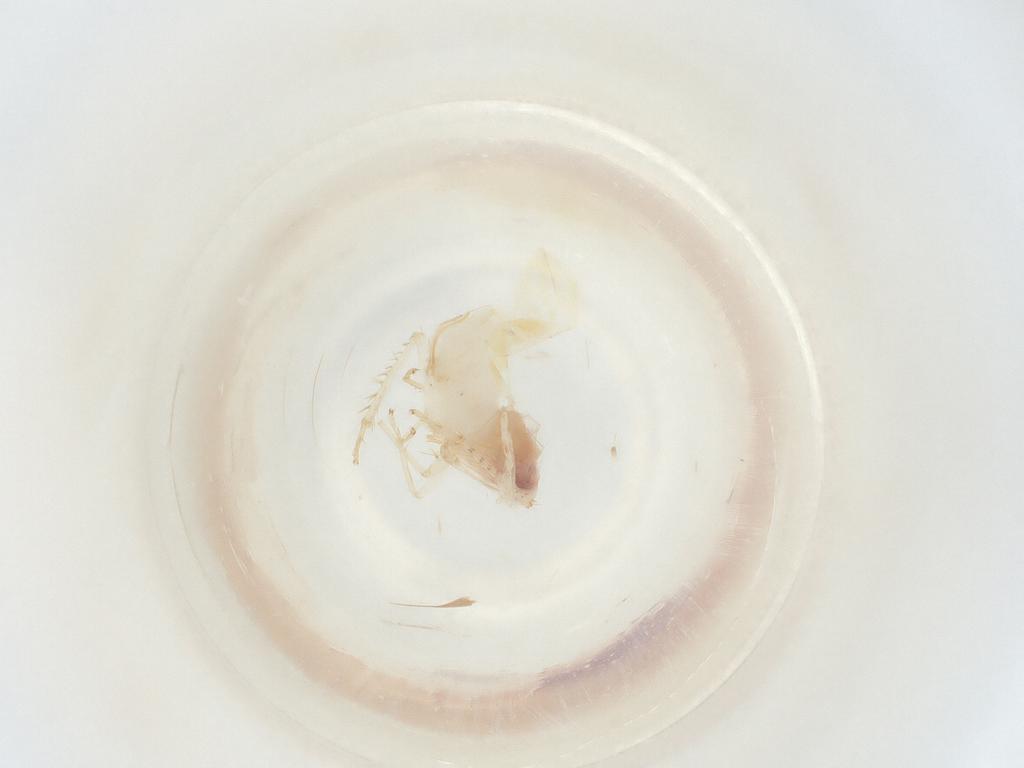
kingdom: Animalia
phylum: Arthropoda
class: Insecta
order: Hemiptera
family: Cicadellidae
